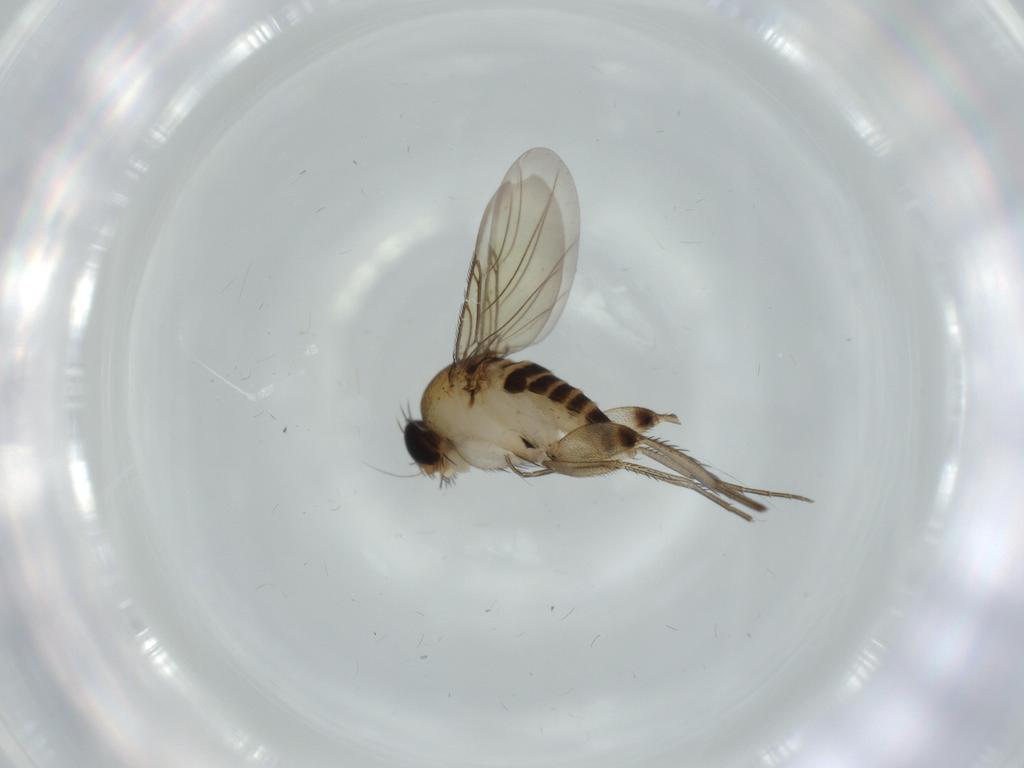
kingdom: Animalia
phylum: Arthropoda
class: Insecta
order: Diptera
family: Phoridae
